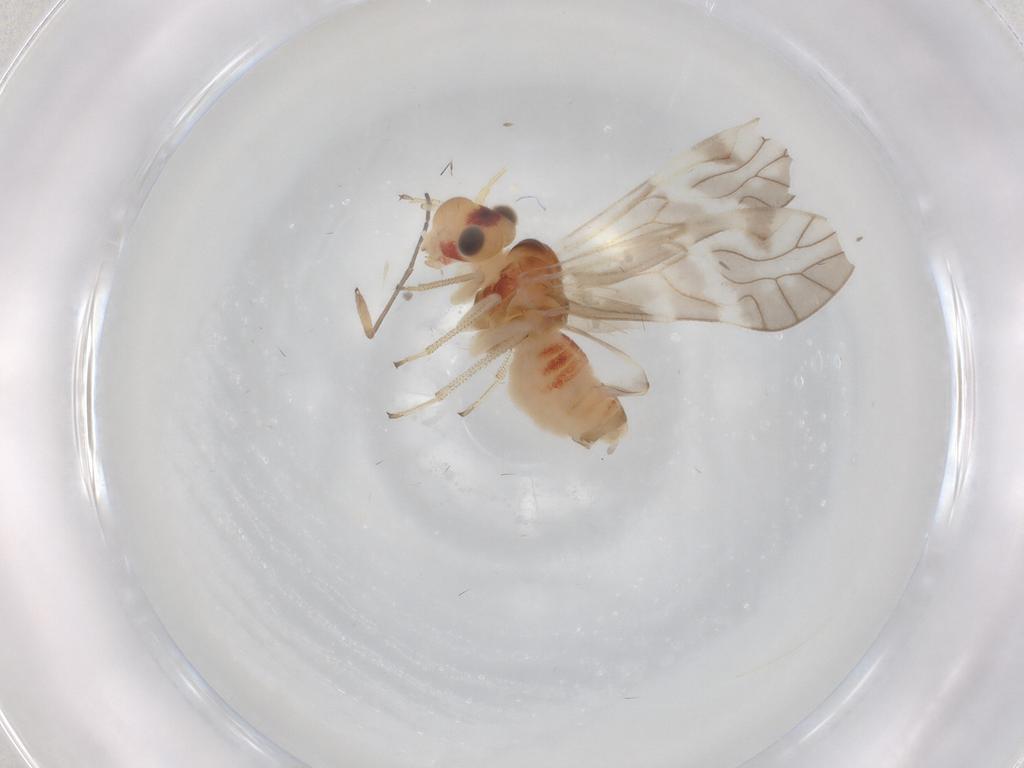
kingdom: Animalia
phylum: Arthropoda
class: Insecta
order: Psocodea
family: Caeciliusidae
